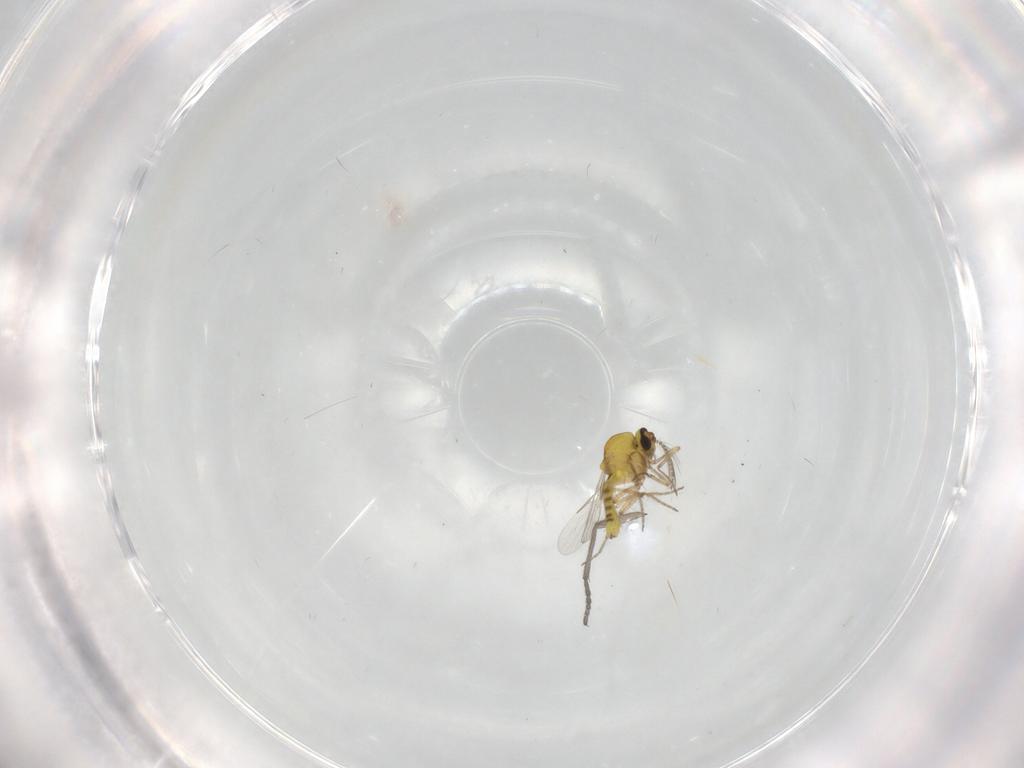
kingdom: Animalia
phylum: Arthropoda
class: Insecta
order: Diptera
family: Ceratopogonidae
